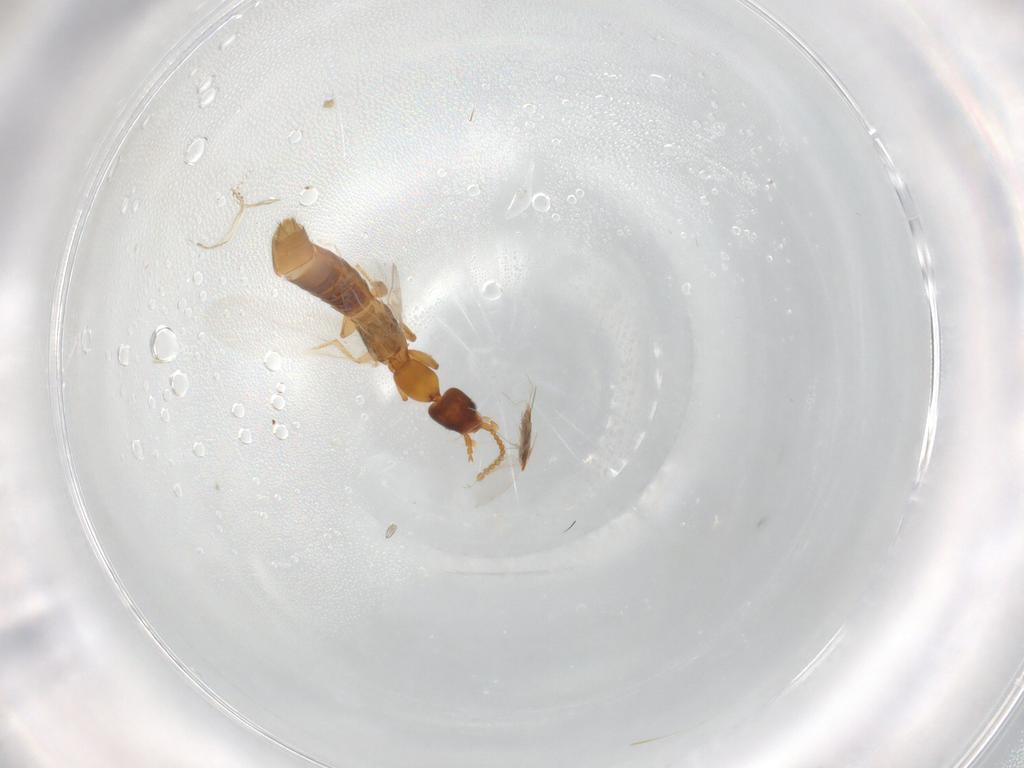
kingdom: Animalia
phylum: Arthropoda
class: Insecta
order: Coleoptera
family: Staphylinidae
